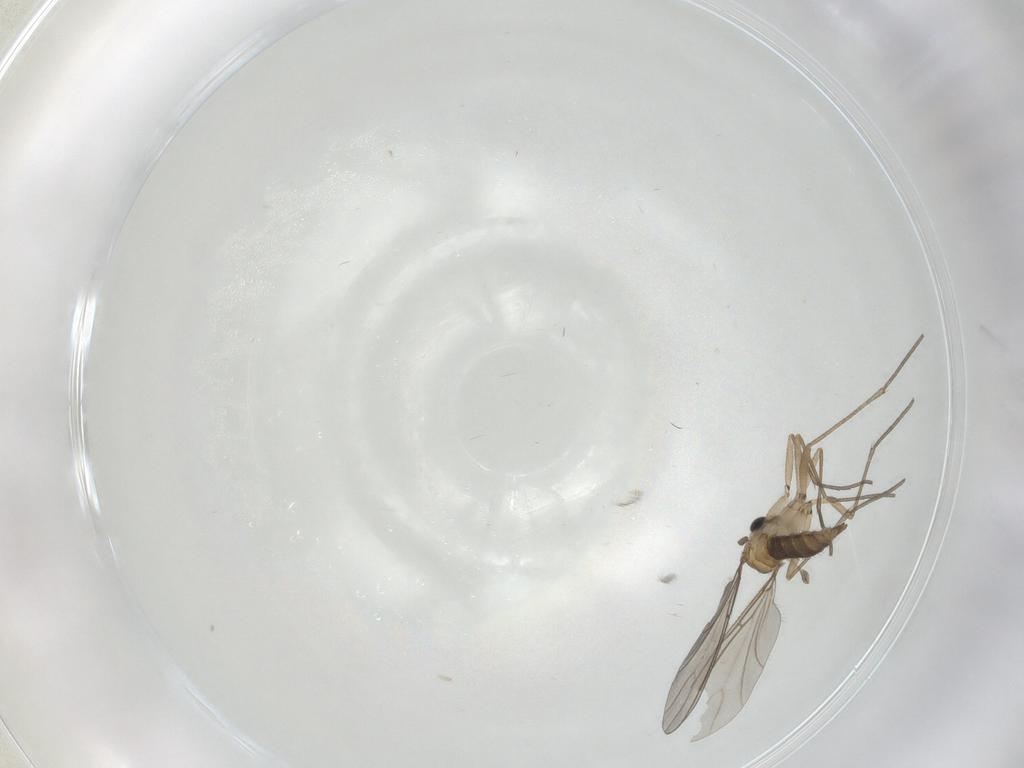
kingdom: Animalia
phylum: Arthropoda
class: Insecta
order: Diptera
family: Sciaridae
